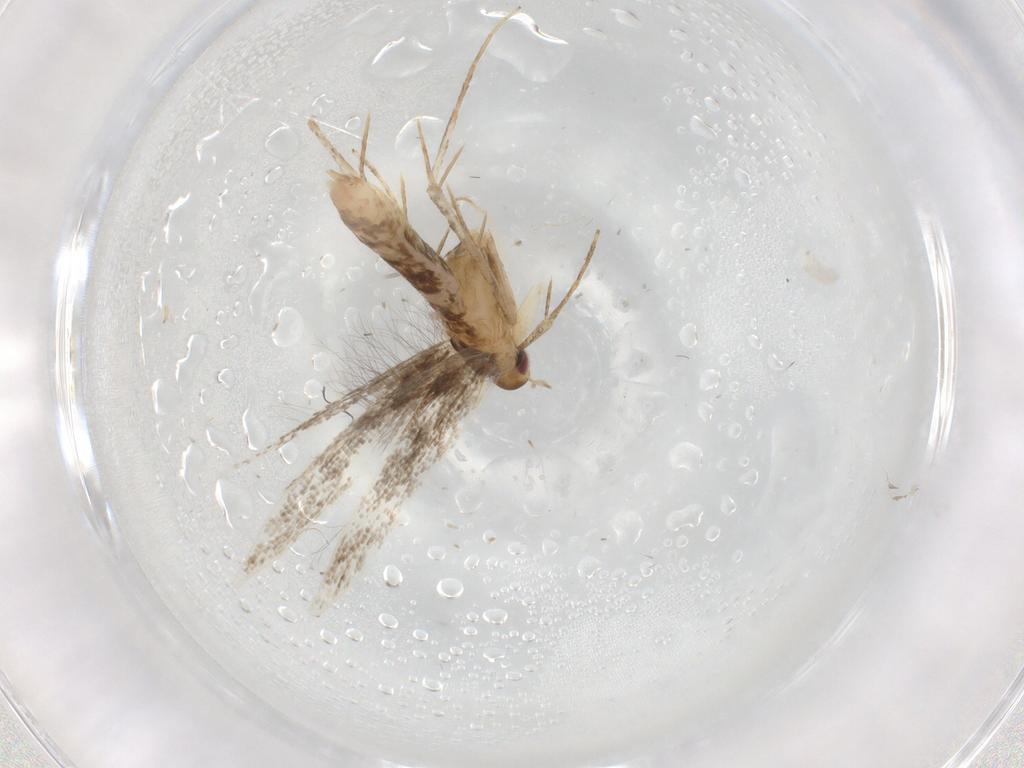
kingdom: Animalia
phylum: Arthropoda
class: Insecta
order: Lepidoptera
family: Cosmopterigidae
